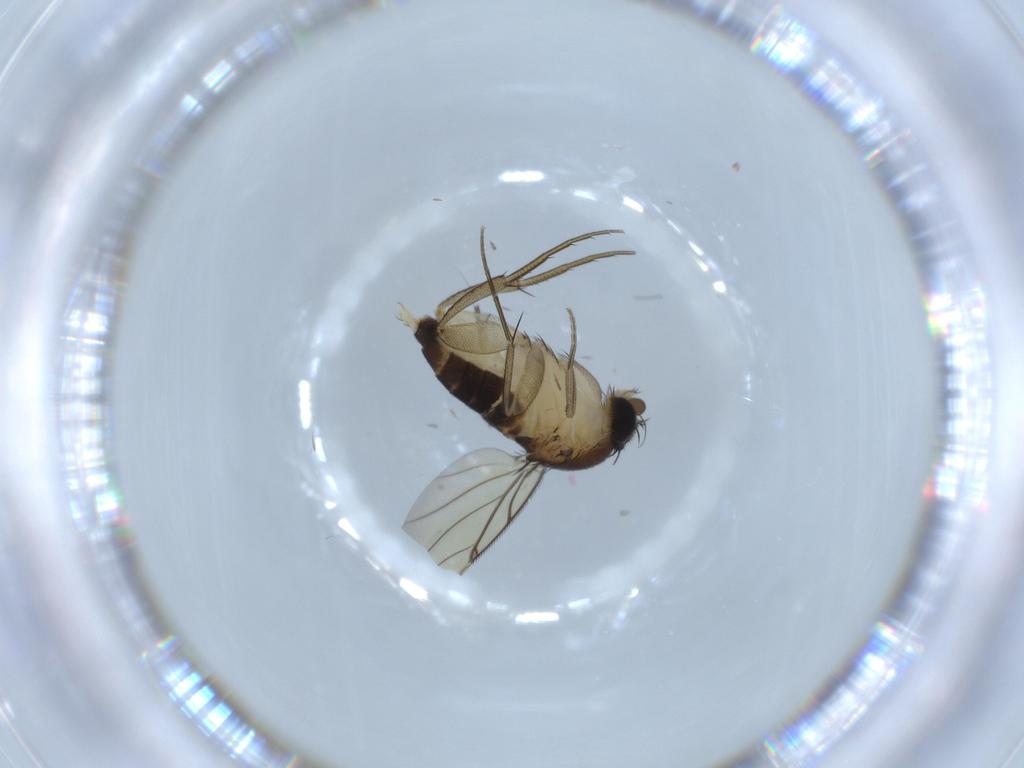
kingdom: Animalia
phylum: Arthropoda
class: Insecta
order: Diptera
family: Phoridae
